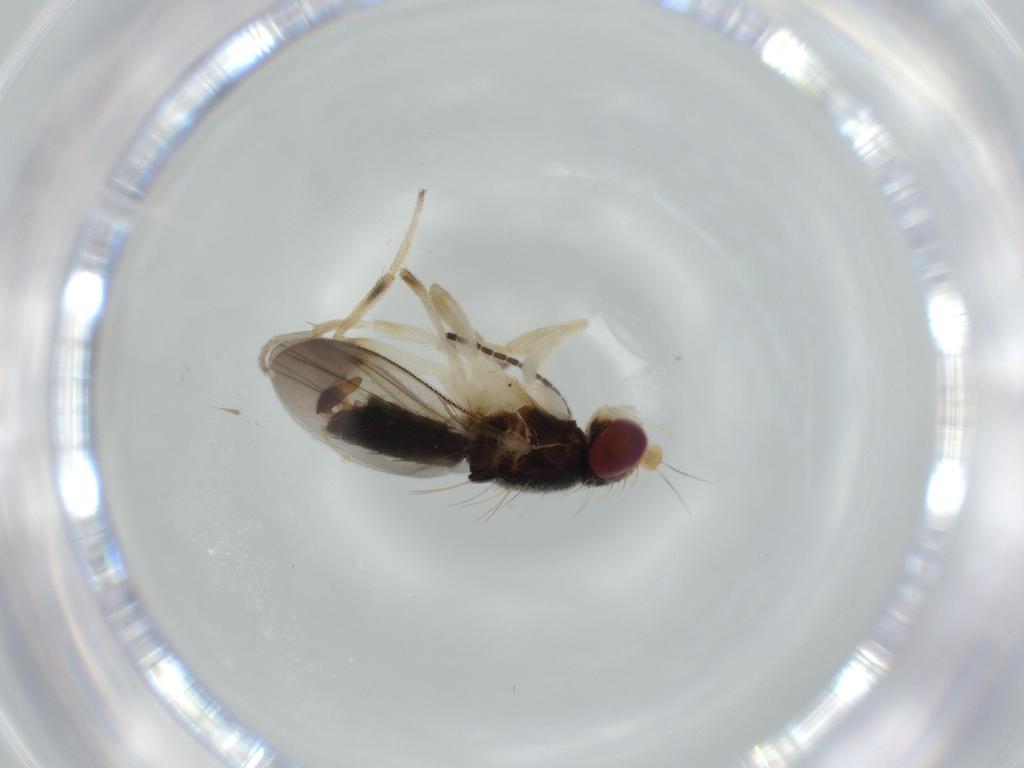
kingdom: Animalia
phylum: Arthropoda
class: Insecta
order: Diptera
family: Clusiidae
